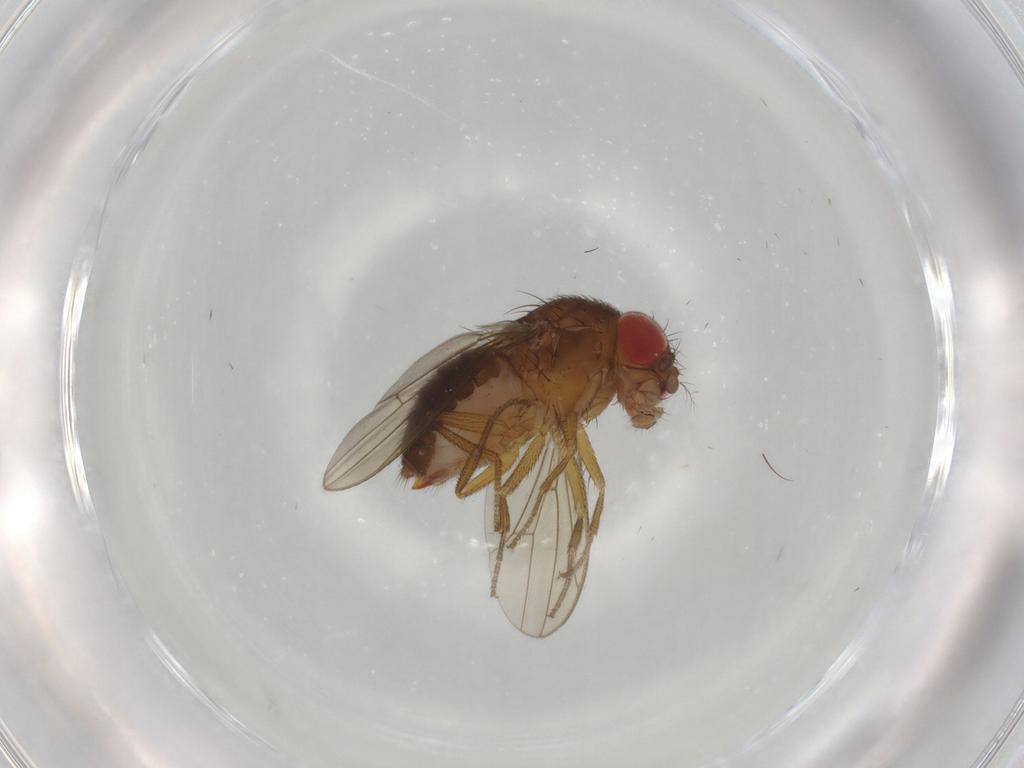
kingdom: Animalia
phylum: Arthropoda
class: Insecta
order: Diptera
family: Drosophilidae
